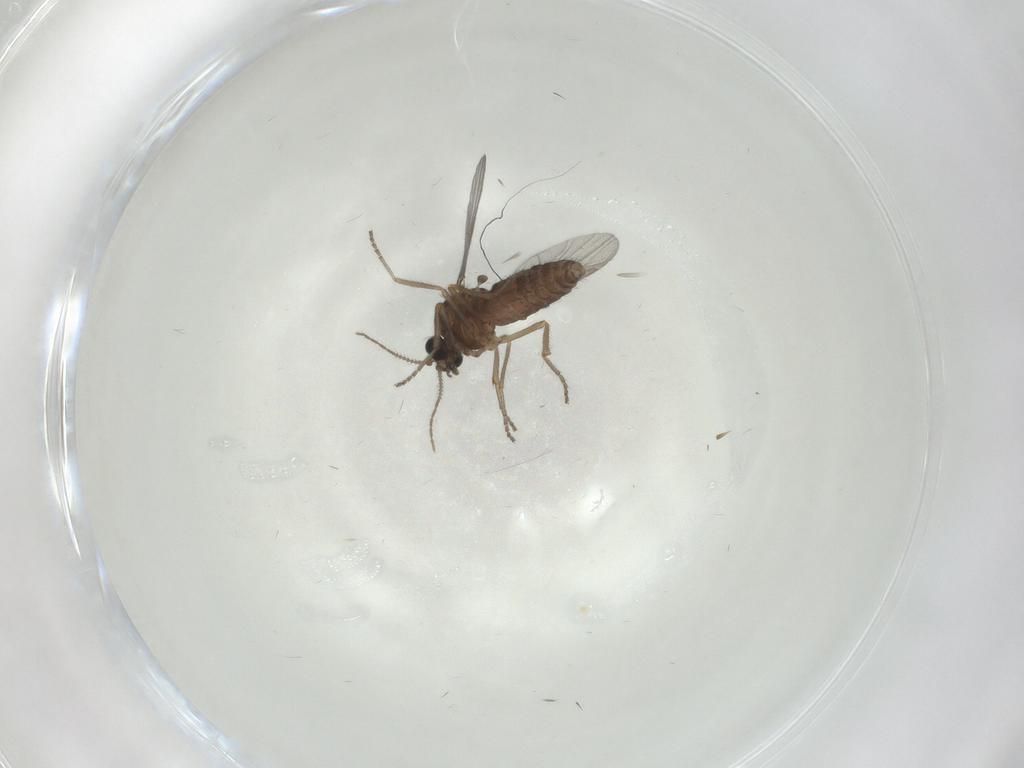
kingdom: Animalia
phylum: Arthropoda
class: Insecta
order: Diptera
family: Ceratopogonidae
